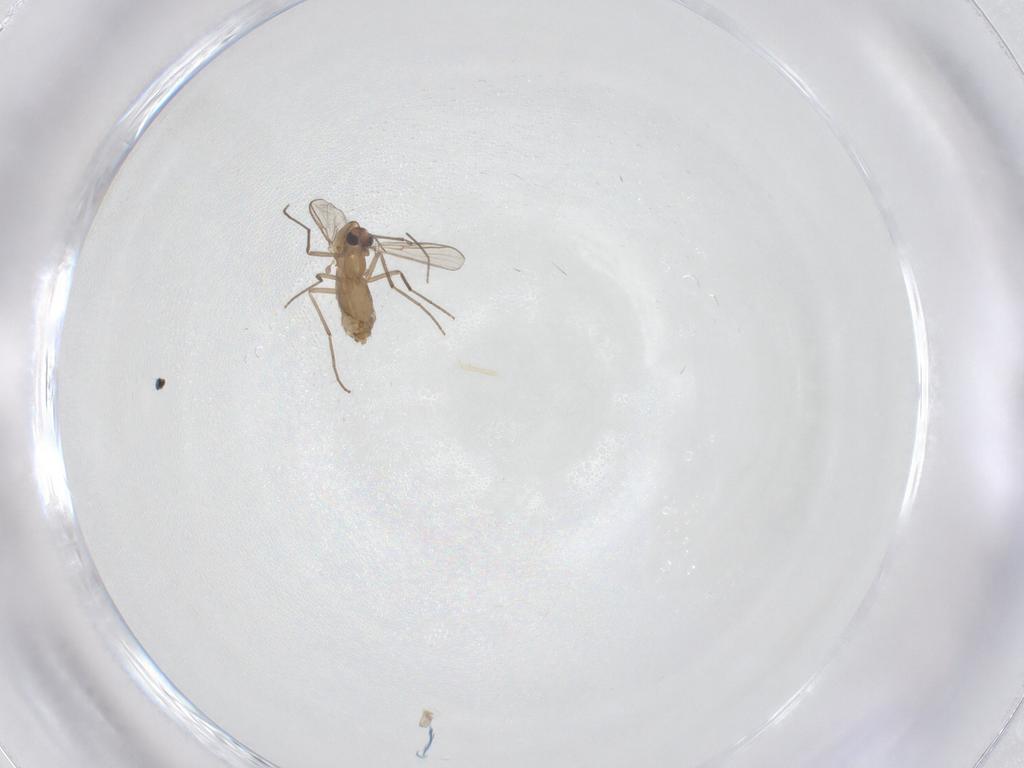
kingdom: Animalia
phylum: Arthropoda
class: Insecta
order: Diptera
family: Chironomidae
